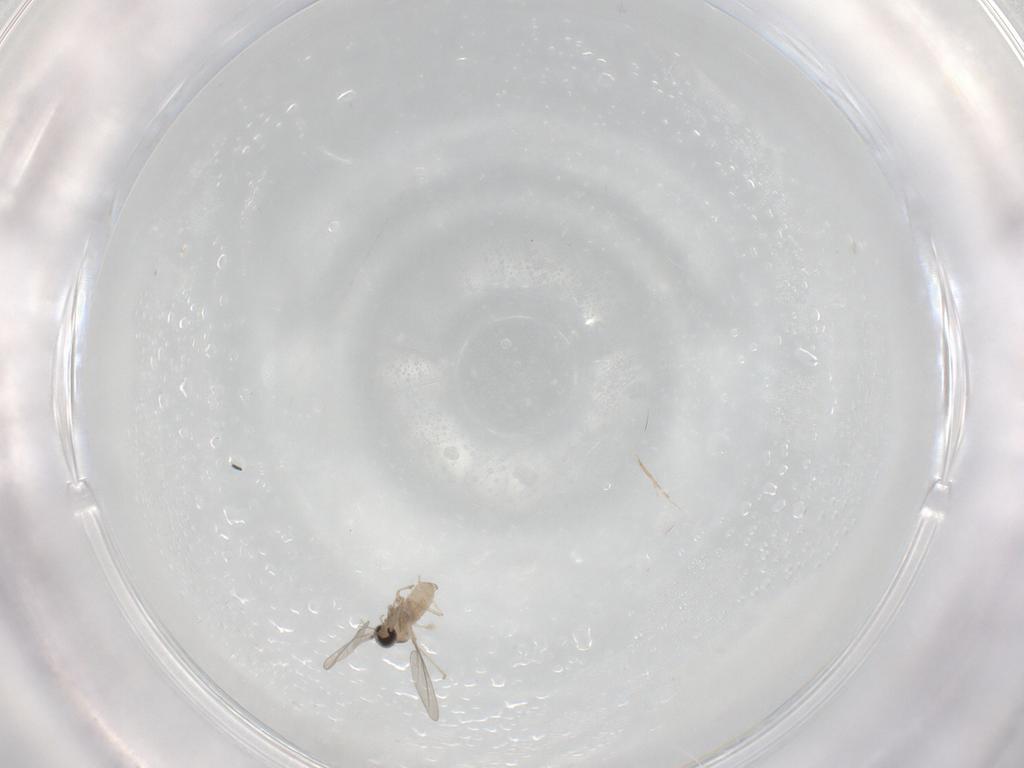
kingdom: Animalia
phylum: Arthropoda
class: Insecta
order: Diptera
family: Cecidomyiidae
